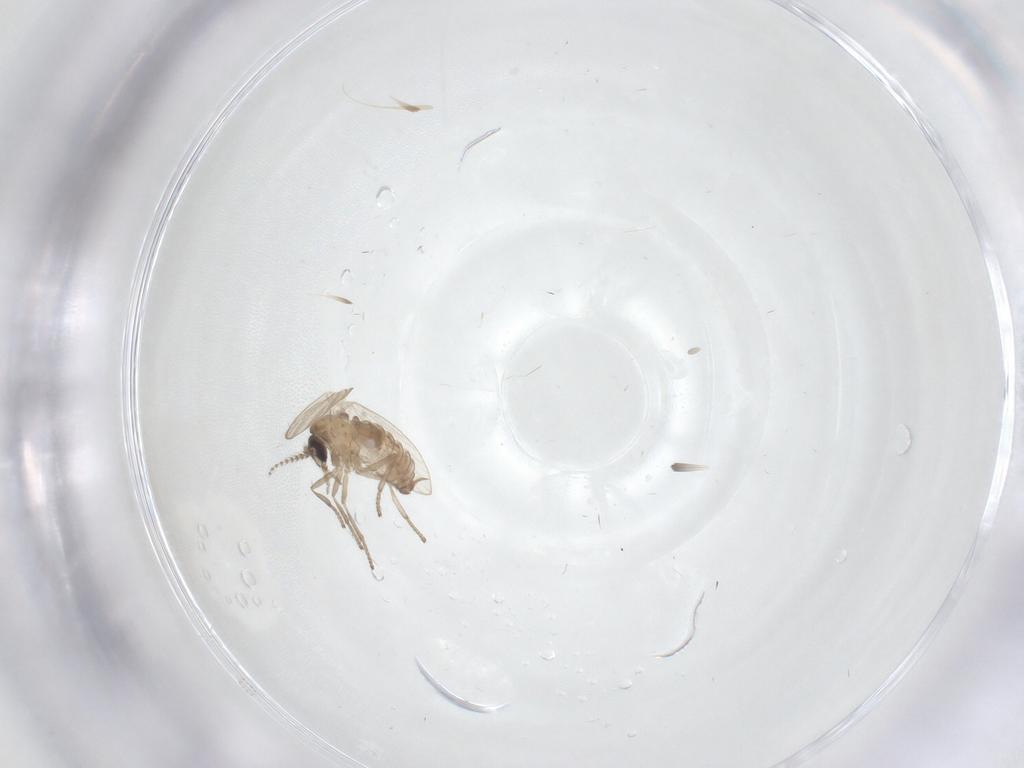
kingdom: Animalia
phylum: Arthropoda
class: Insecta
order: Diptera
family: Psychodidae
